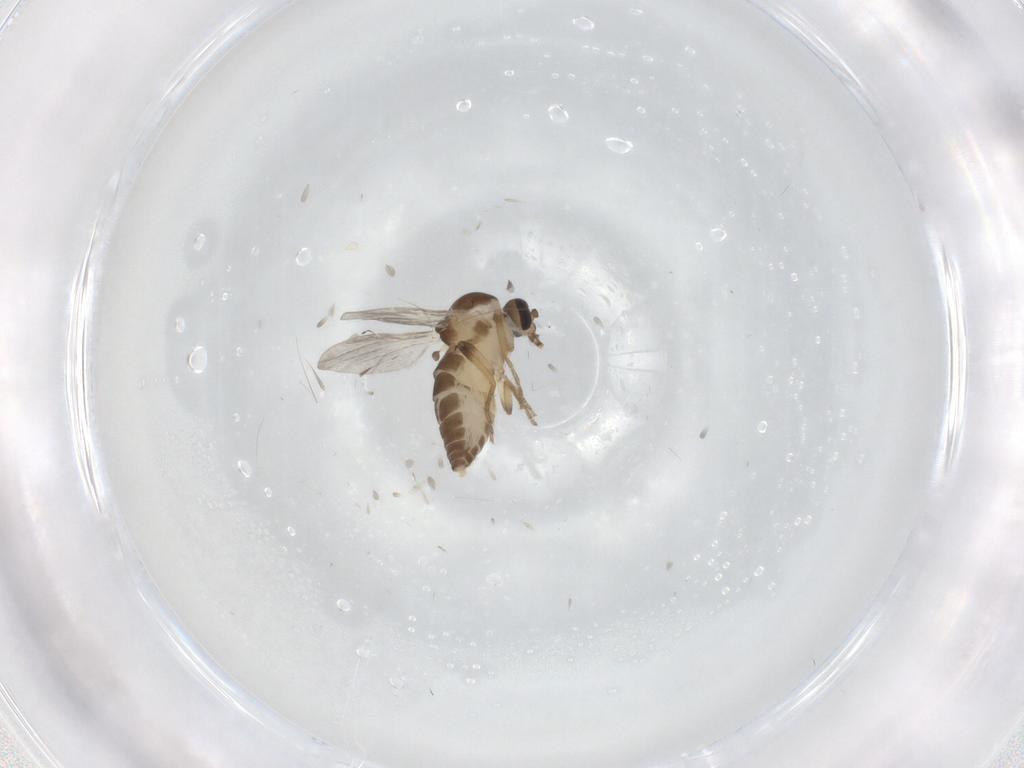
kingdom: Animalia
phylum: Arthropoda
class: Insecta
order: Diptera
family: Ceratopogonidae
